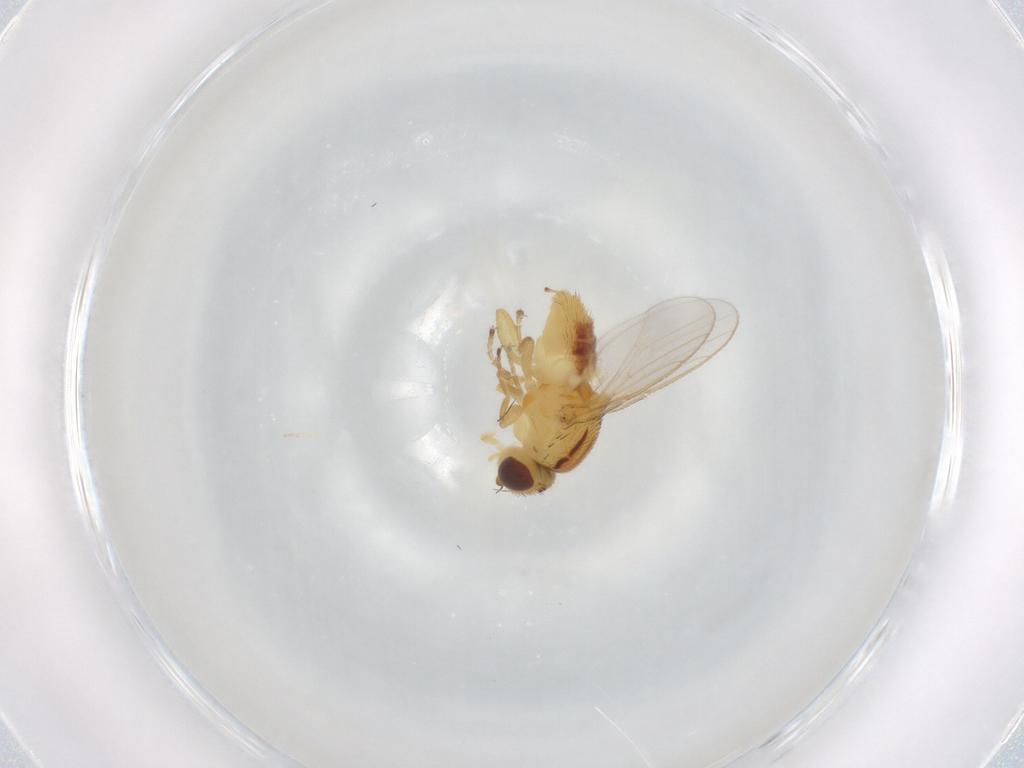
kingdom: Animalia
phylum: Arthropoda
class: Insecta
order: Diptera
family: Chloropidae
